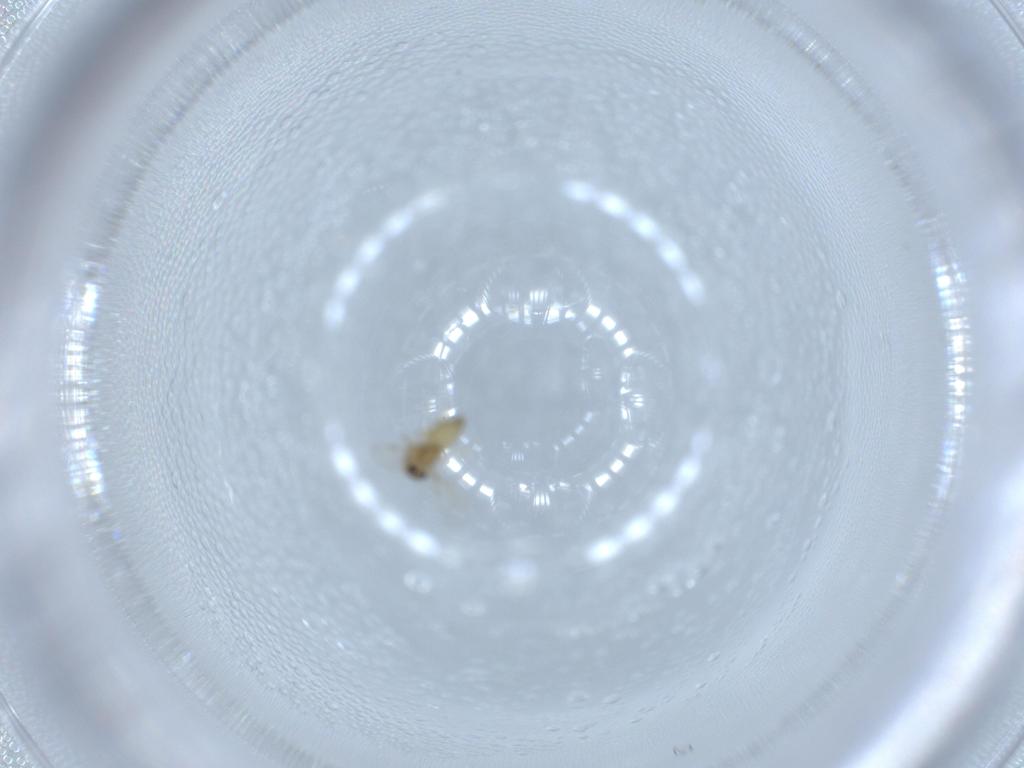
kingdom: Animalia
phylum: Arthropoda
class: Insecta
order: Diptera
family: Chironomidae
